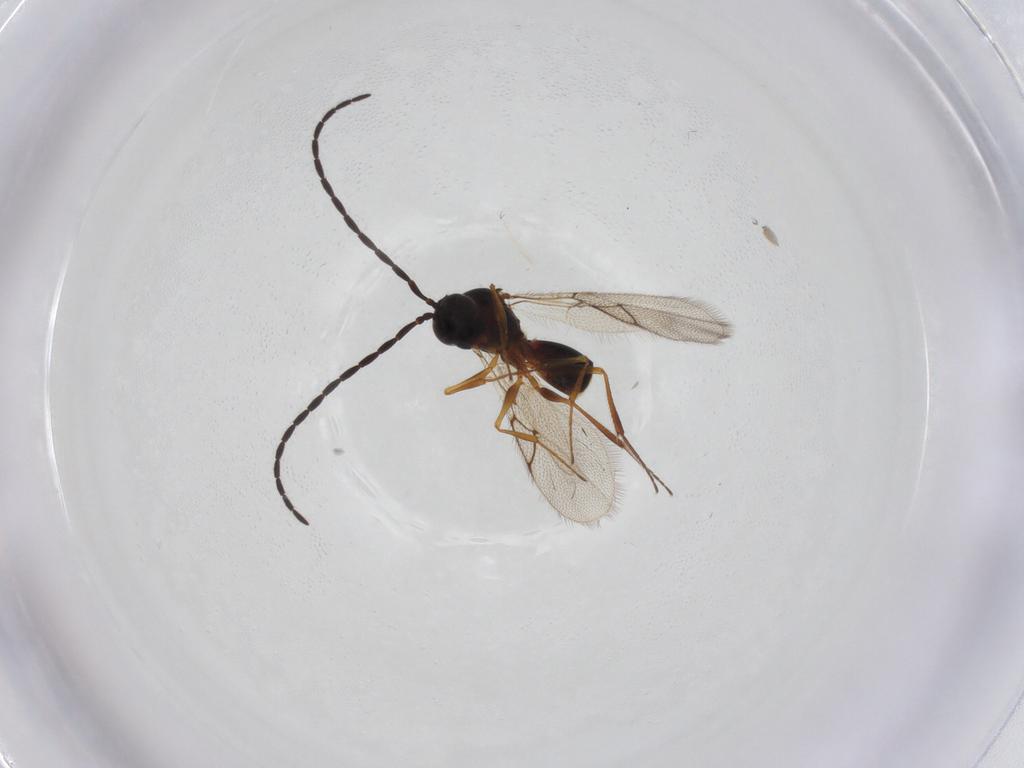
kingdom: Animalia
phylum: Arthropoda
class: Insecta
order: Hymenoptera
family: Figitidae
